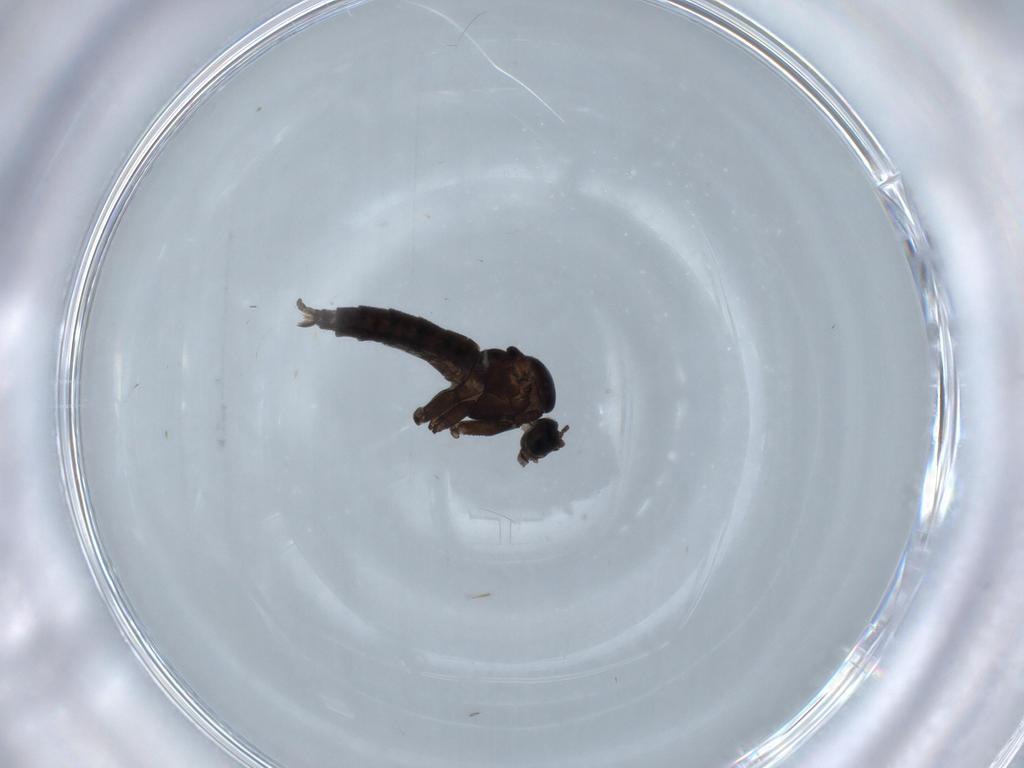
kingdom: Animalia
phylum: Arthropoda
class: Insecta
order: Diptera
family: Sciaridae
